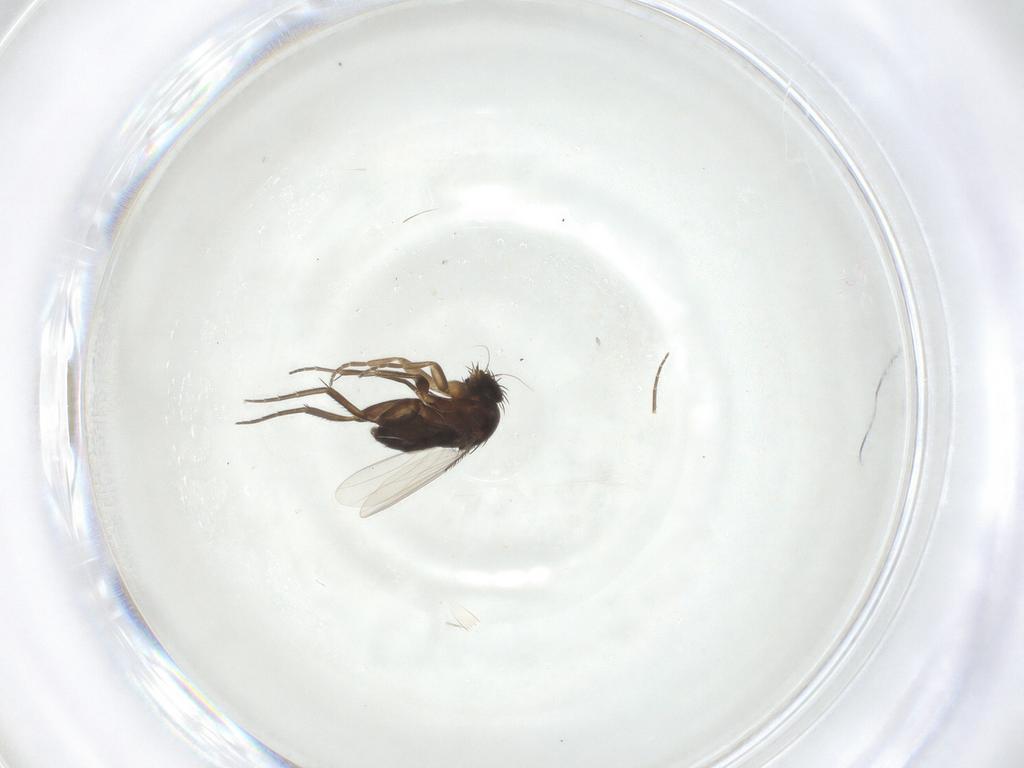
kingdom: Animalia
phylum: Arthropoda
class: Insecta
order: Diptera
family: Phoridae
